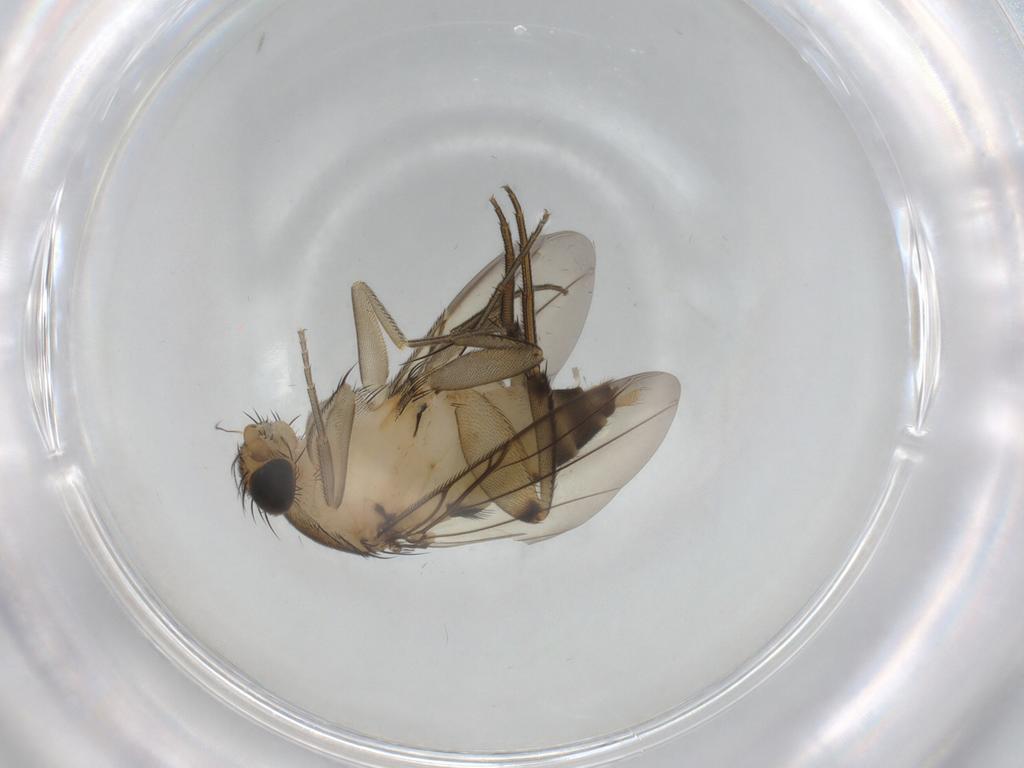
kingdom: Animalia
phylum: Arthropoda
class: Insecta
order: Diptera
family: Phoridae
